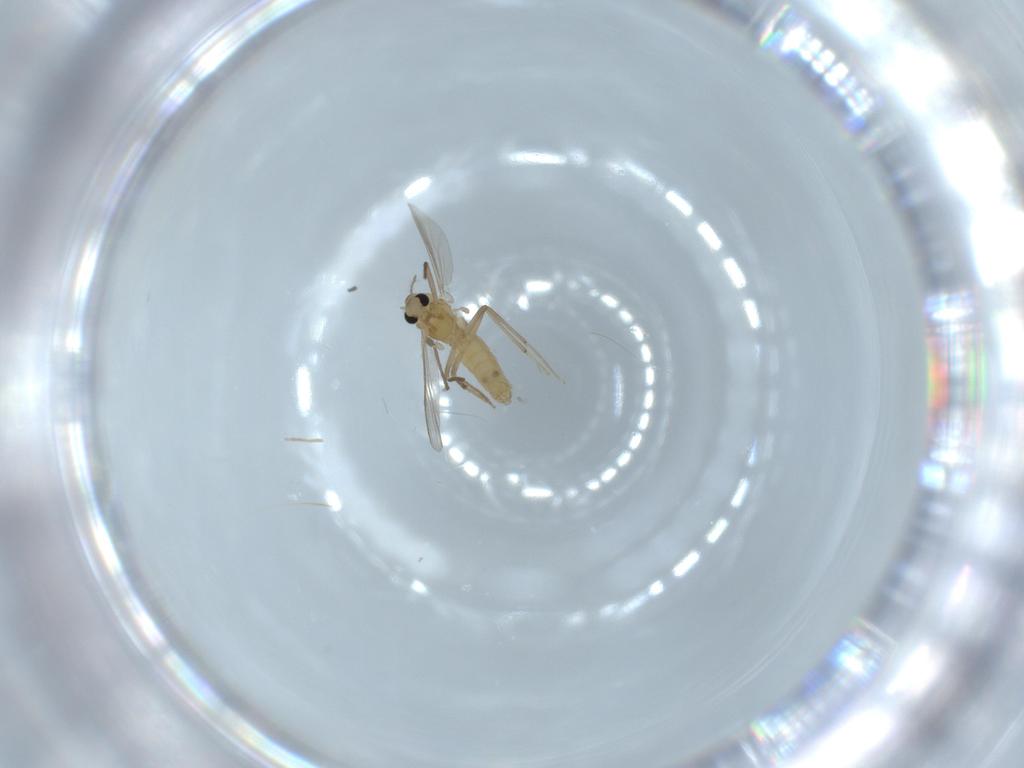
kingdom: Animalia
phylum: Arthropoda
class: Insecta
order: Diptera
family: Chironomidae
